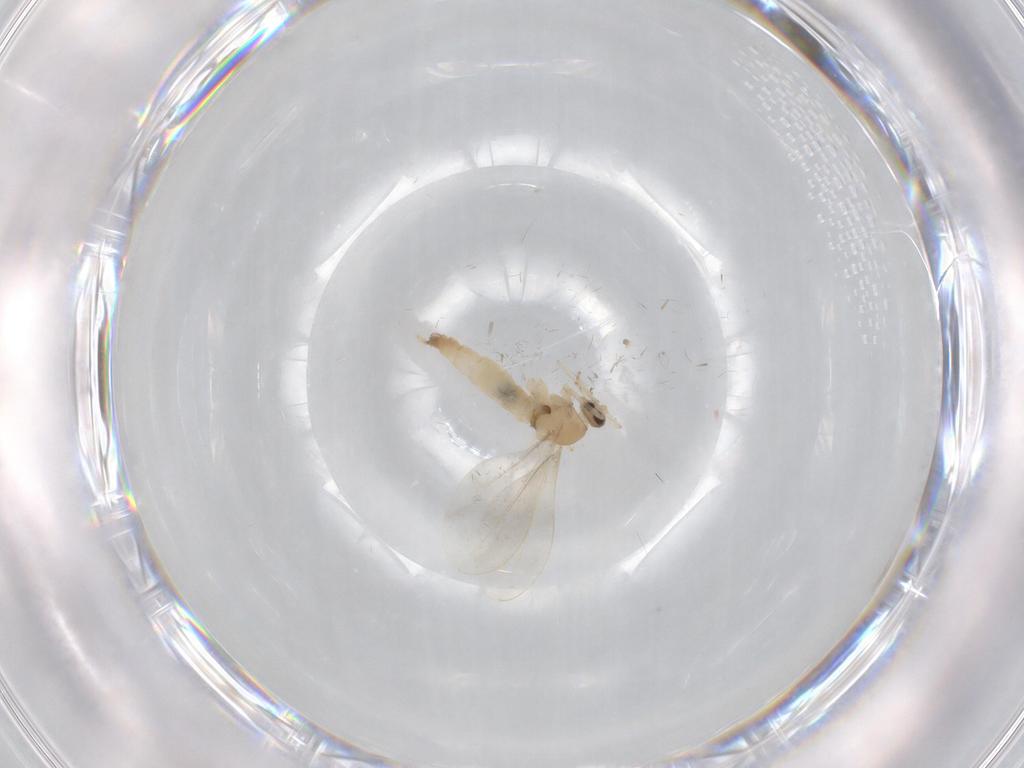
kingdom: Animalia
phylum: Arthropoda
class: Insecta
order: Diptera
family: Cecidomyiidae
